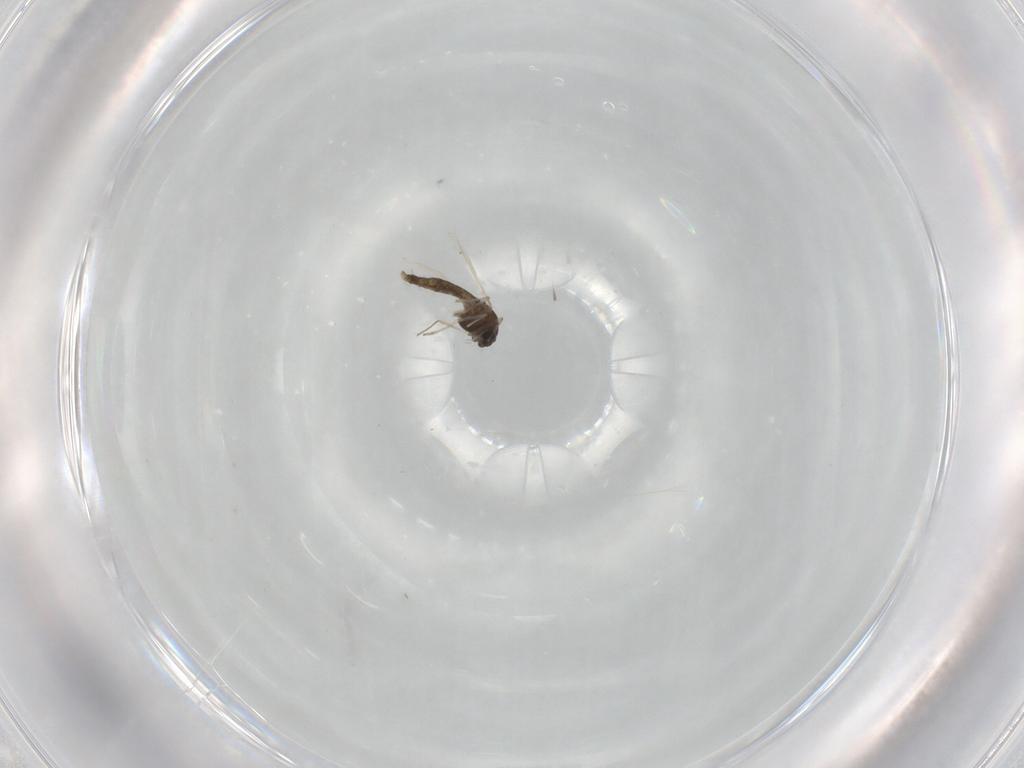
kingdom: Animalia
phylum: Arthropoda
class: Insecta
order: Diptera
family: Chironomidae
